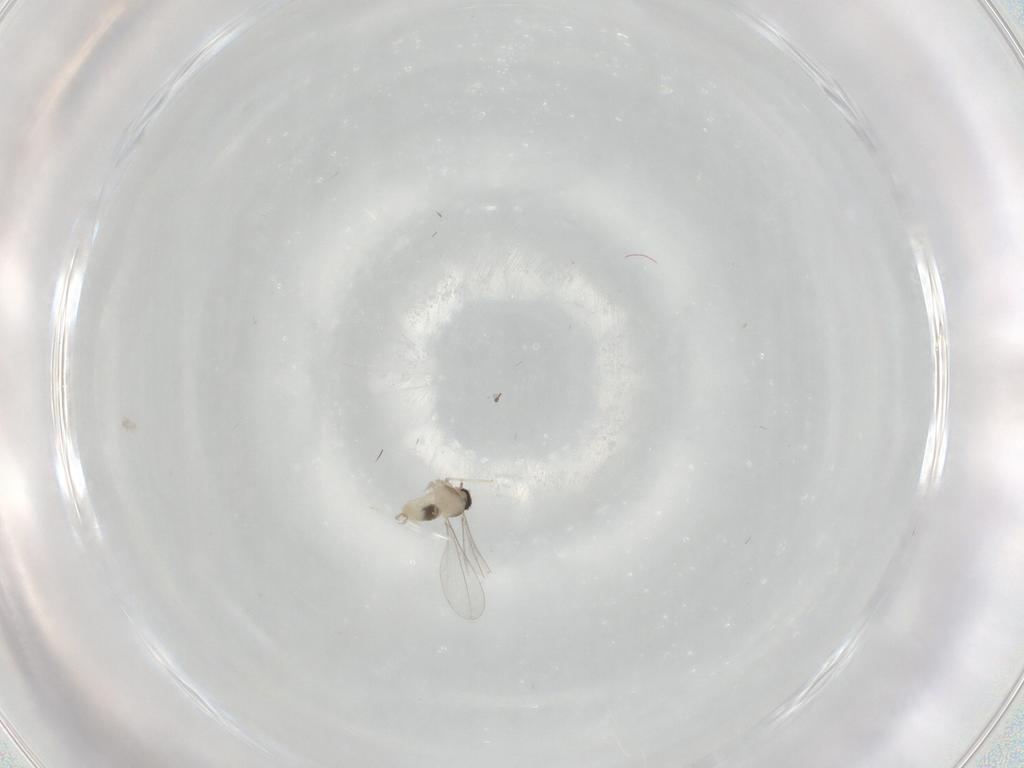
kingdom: Animalia
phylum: Arthropoda
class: Insecta
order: Diptera
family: Cecidomyiidae
